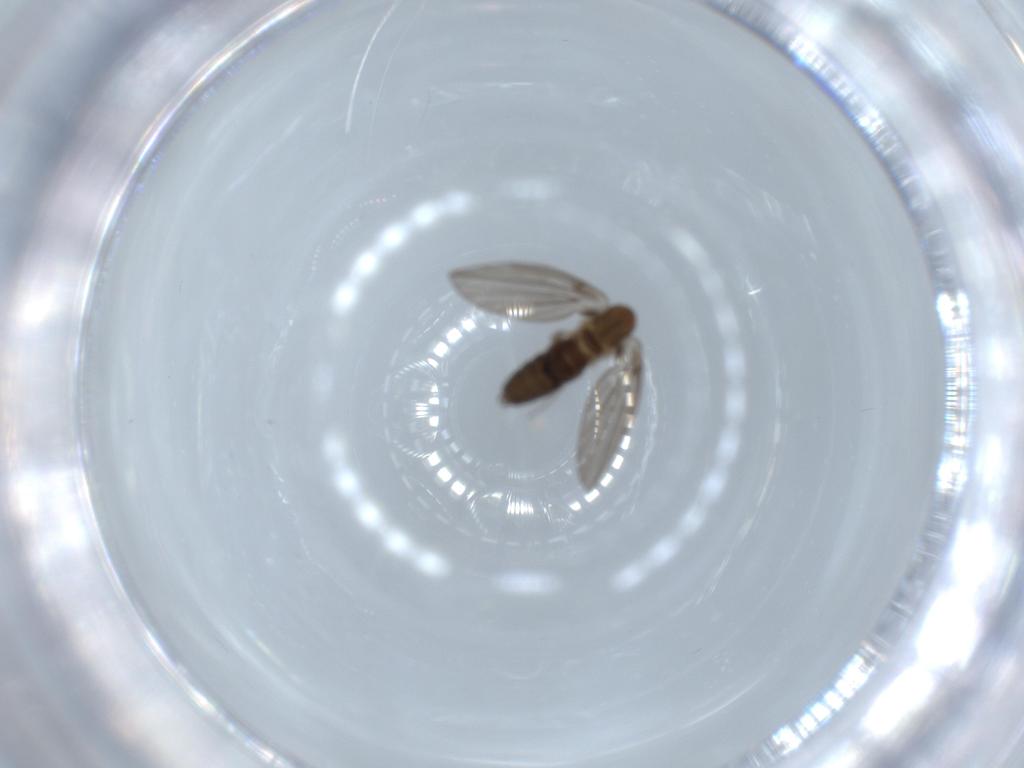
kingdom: Animalia
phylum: Arthropoda
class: Insecta
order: Diptera
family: Psychodidae
